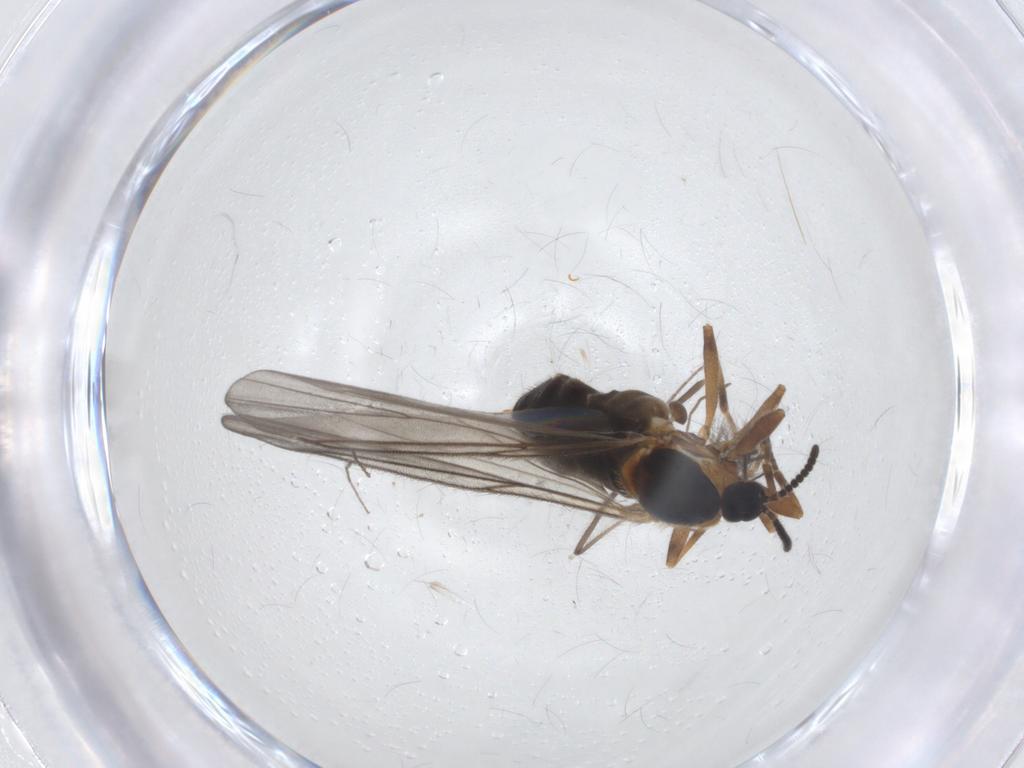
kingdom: Animalia
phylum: Arthropoda
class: Insecta
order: Diptera
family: Scatopsidae
